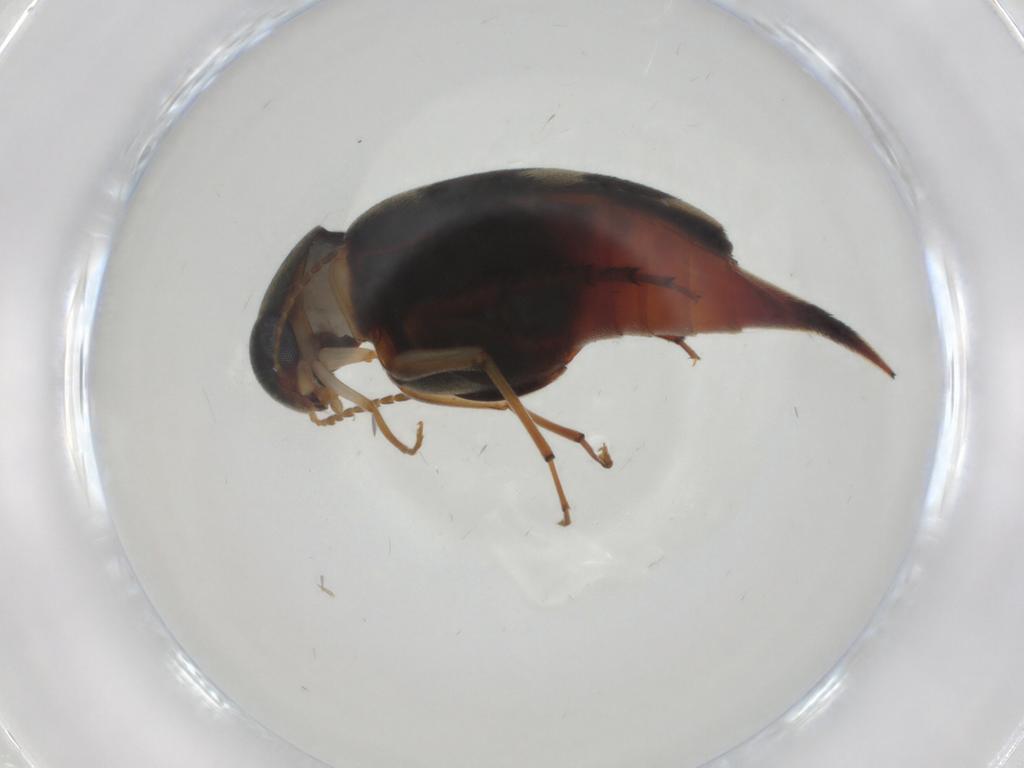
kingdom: Animalia
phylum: Arthropoda
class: Insecta
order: Coleoptera
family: Mordellidae
